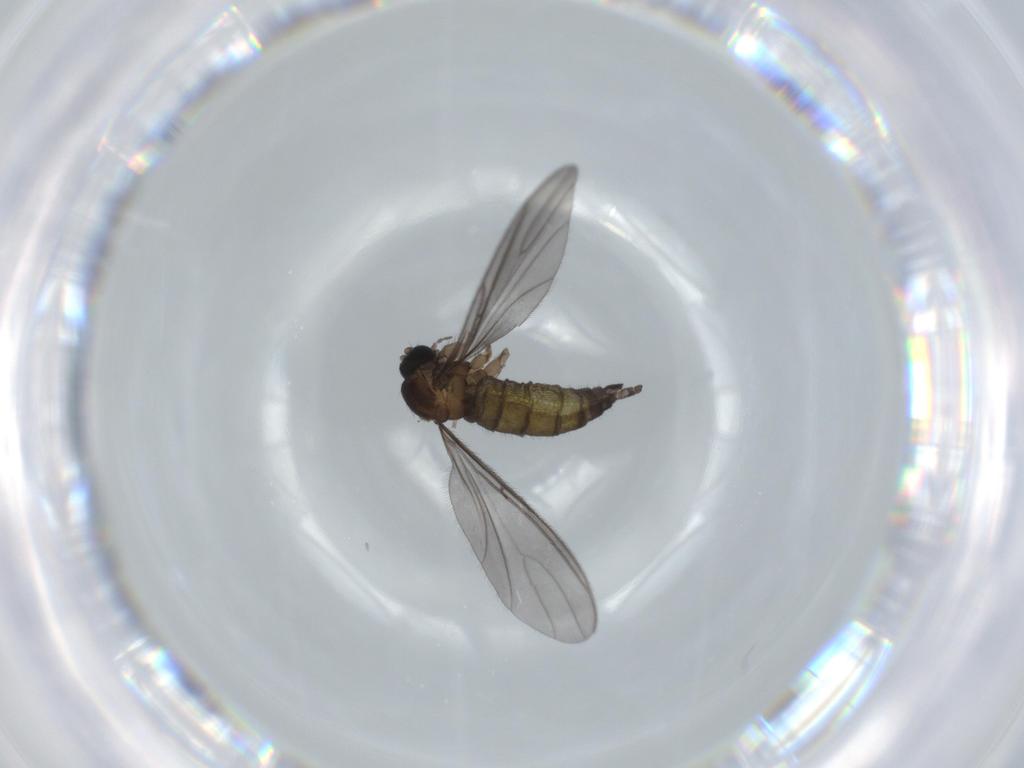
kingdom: Animalia
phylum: Arthropoda
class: Insecta
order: Diptera
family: Sciaridae
